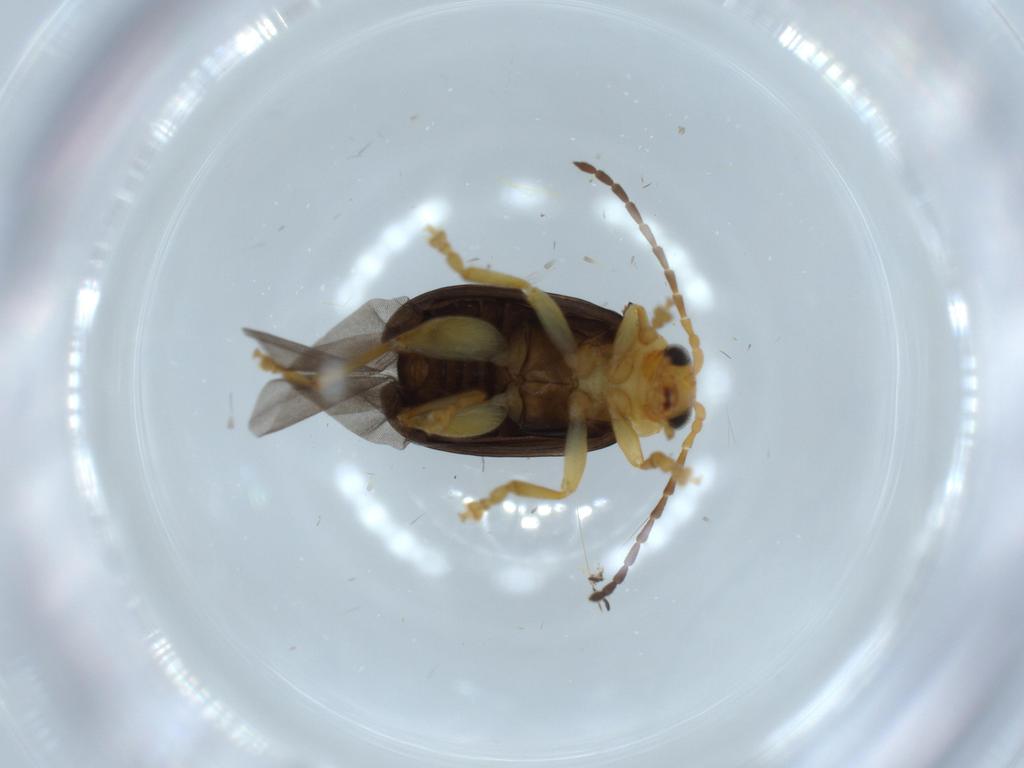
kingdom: Animalia
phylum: Arthropoda
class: Insecta
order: Coleoptera
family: Chrysomelidae
